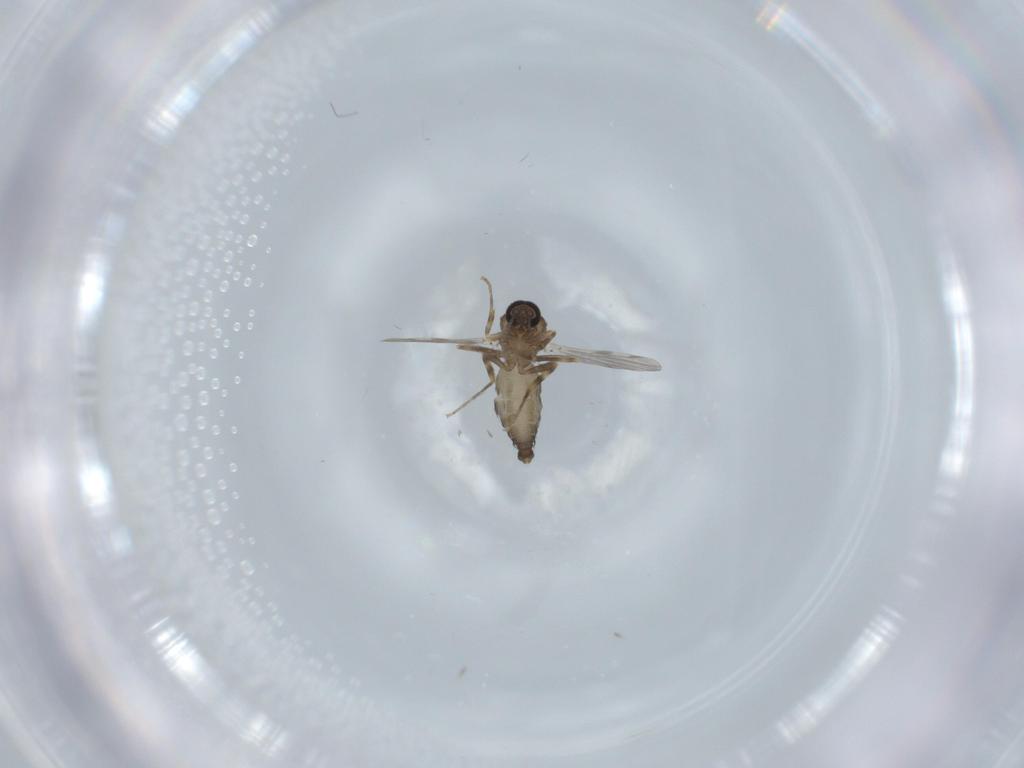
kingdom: Animalia
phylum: Arthropoda
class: Insecta
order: Diptera
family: Ceratopogonidae
